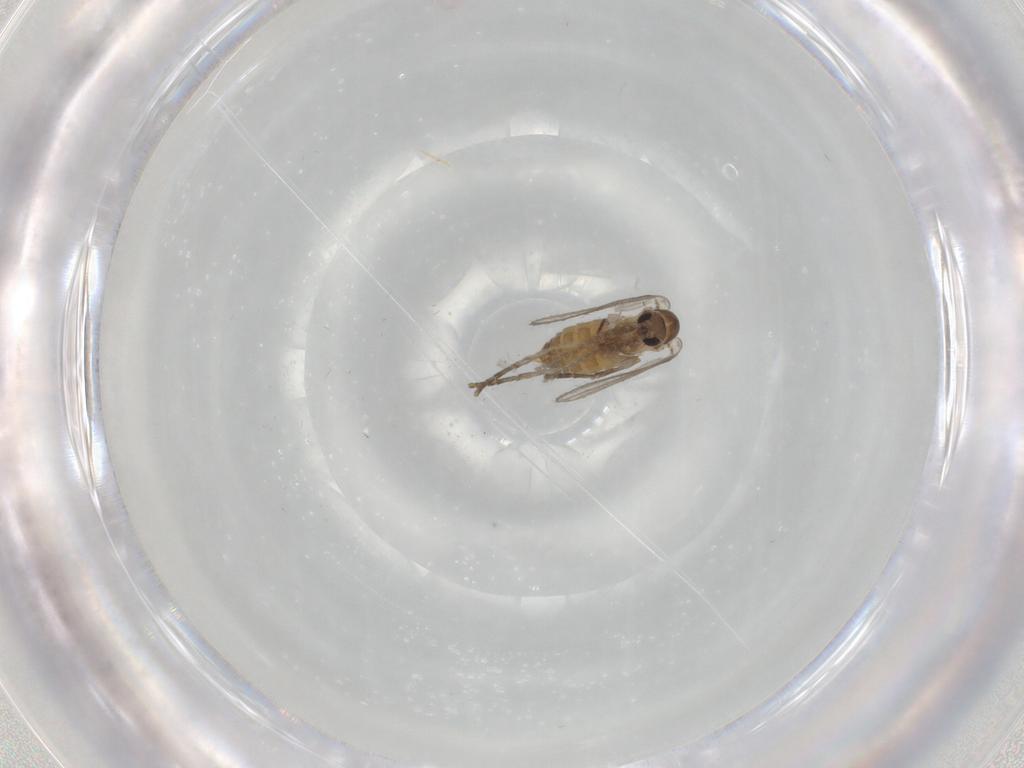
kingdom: Animalia
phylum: Arthropoda
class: Insecta
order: Diptera
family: Psychodidae
